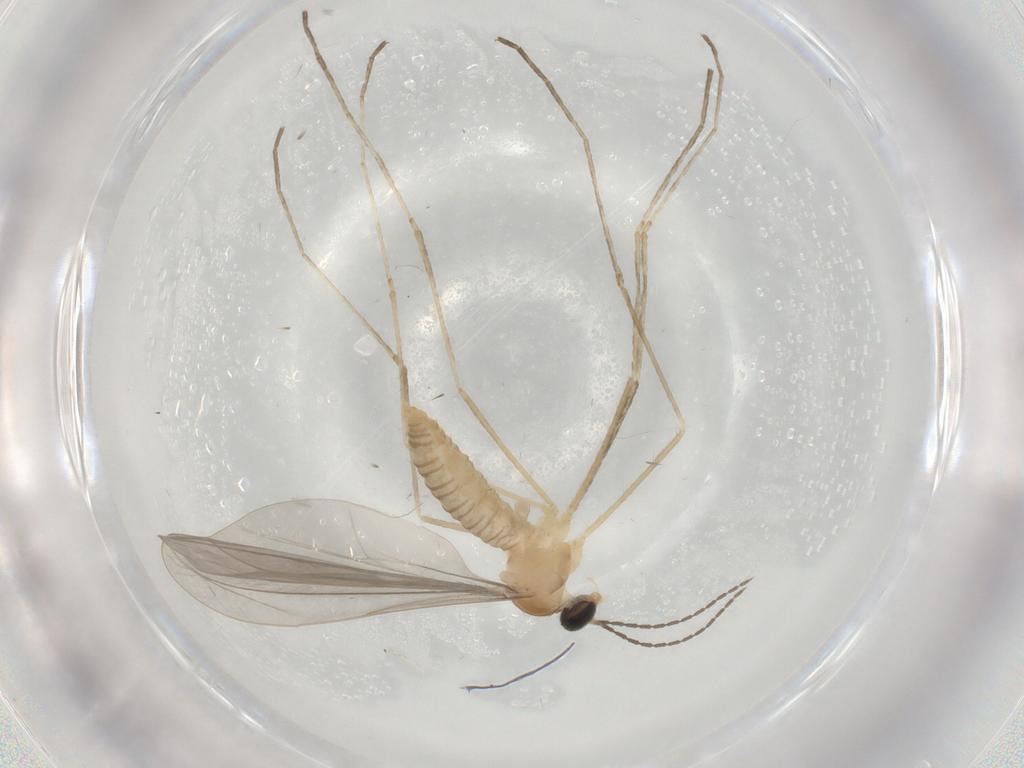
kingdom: Animalia
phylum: Arthropoda
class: Insecta
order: Diptera
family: Cecidomyiidae
